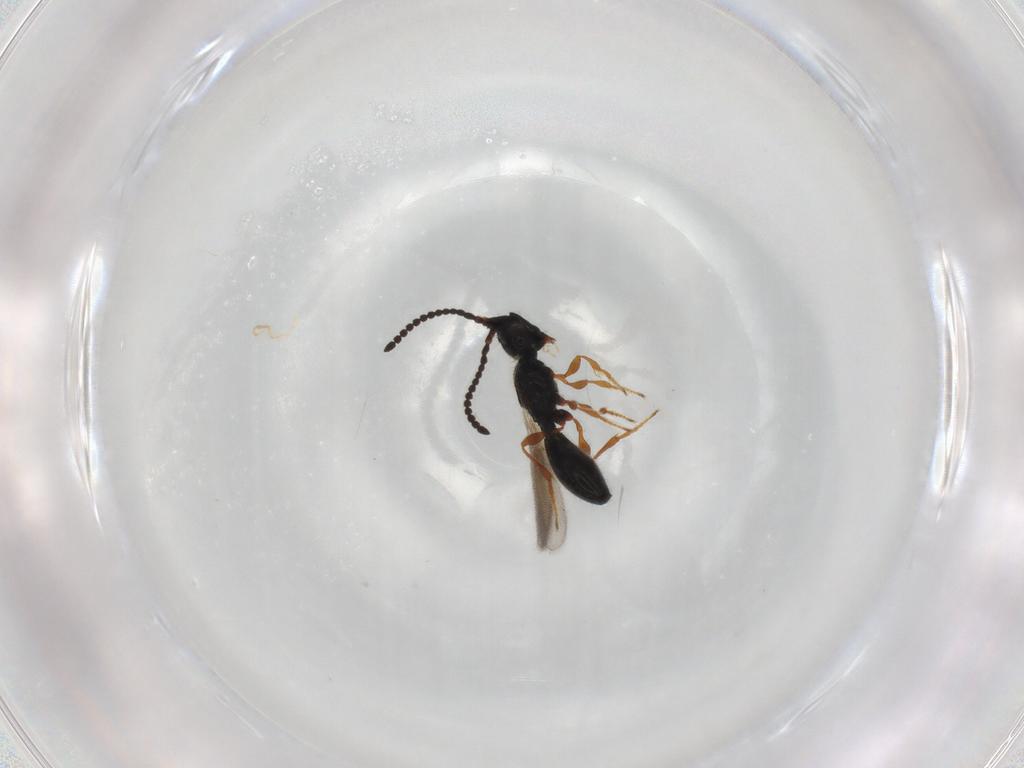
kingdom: Animalia
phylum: Arthropoda
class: Insecta
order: Hymenoptera
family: Diapriidae
